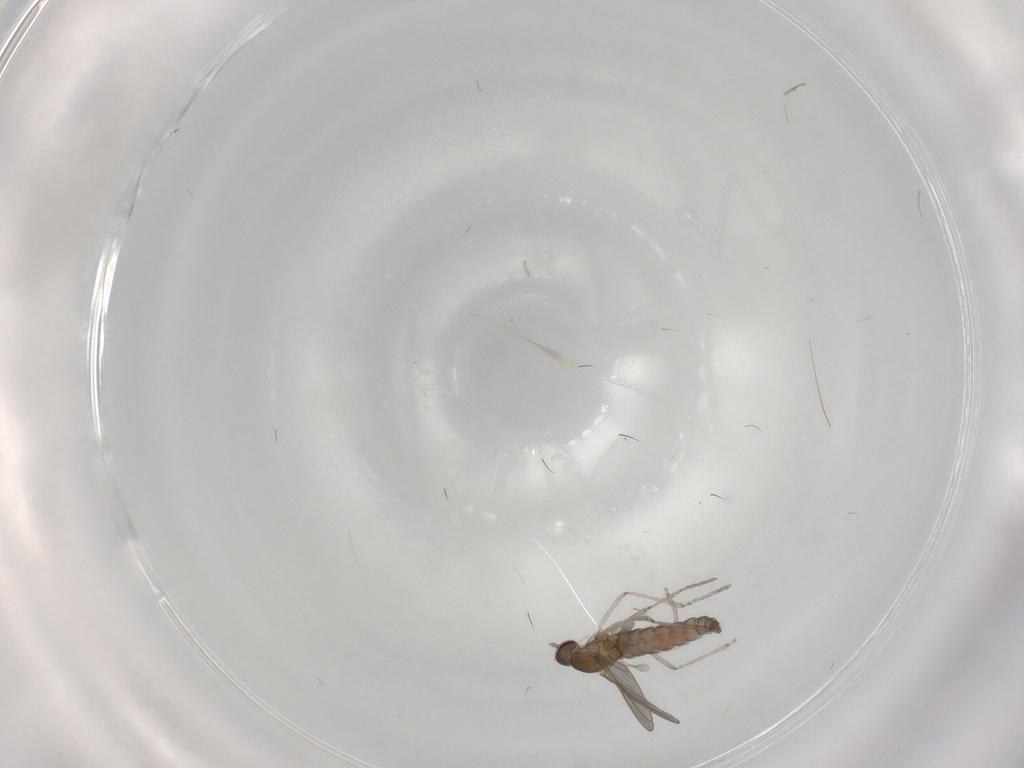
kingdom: Animalia
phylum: Arthropoda
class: Insecta
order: Diptera
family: Cecidomyiidae
